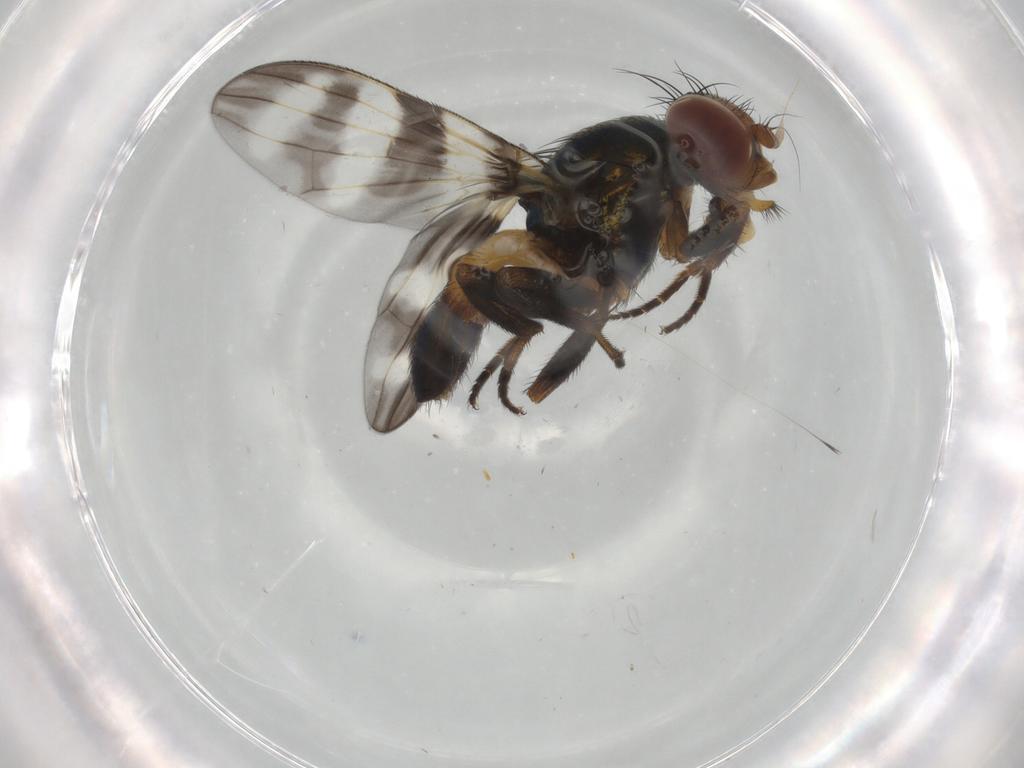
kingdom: Animalia
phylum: Arthropoda
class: Insecta
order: Diptera
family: Ulidiidae
